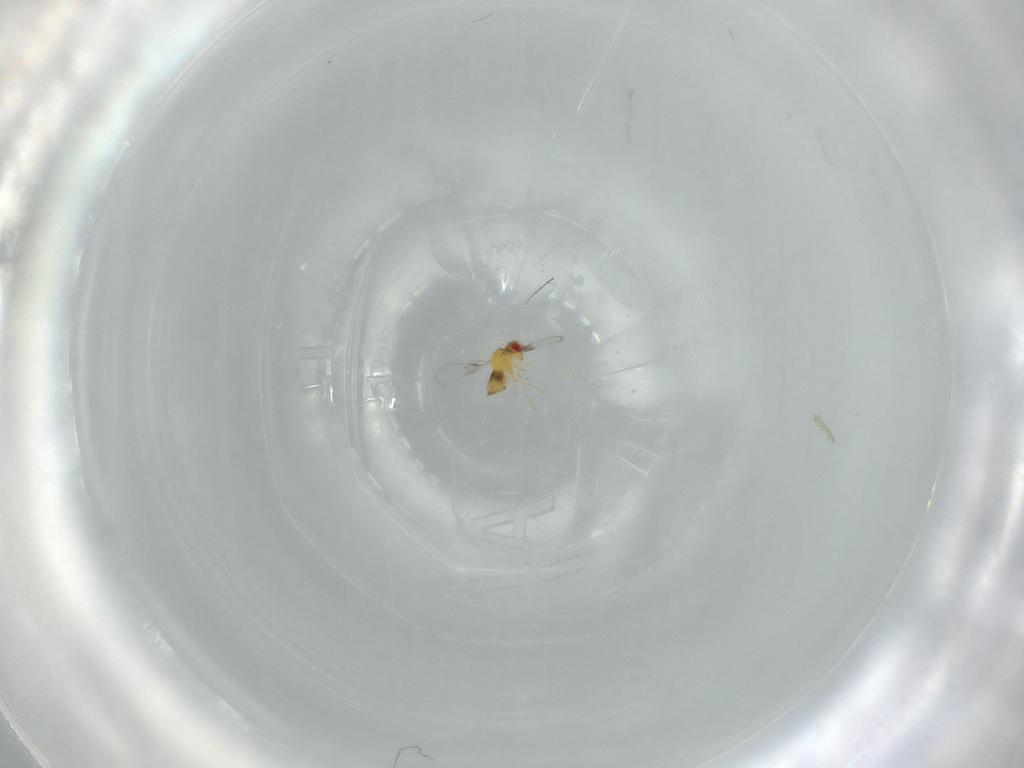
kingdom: Animalia
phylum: Arthropoda
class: Insecta
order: Hymenoptera
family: Trichogrammatidae
